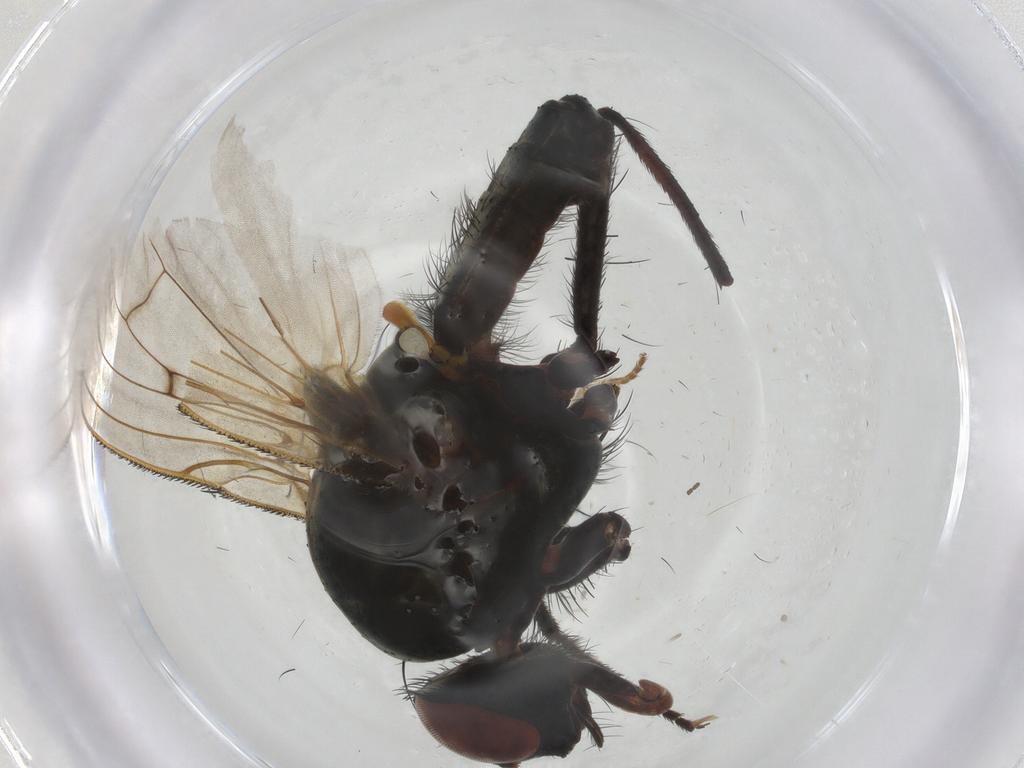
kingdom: Animalia
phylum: Arthropoda
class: Insecta
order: Diptera
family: Anthomyiidae
